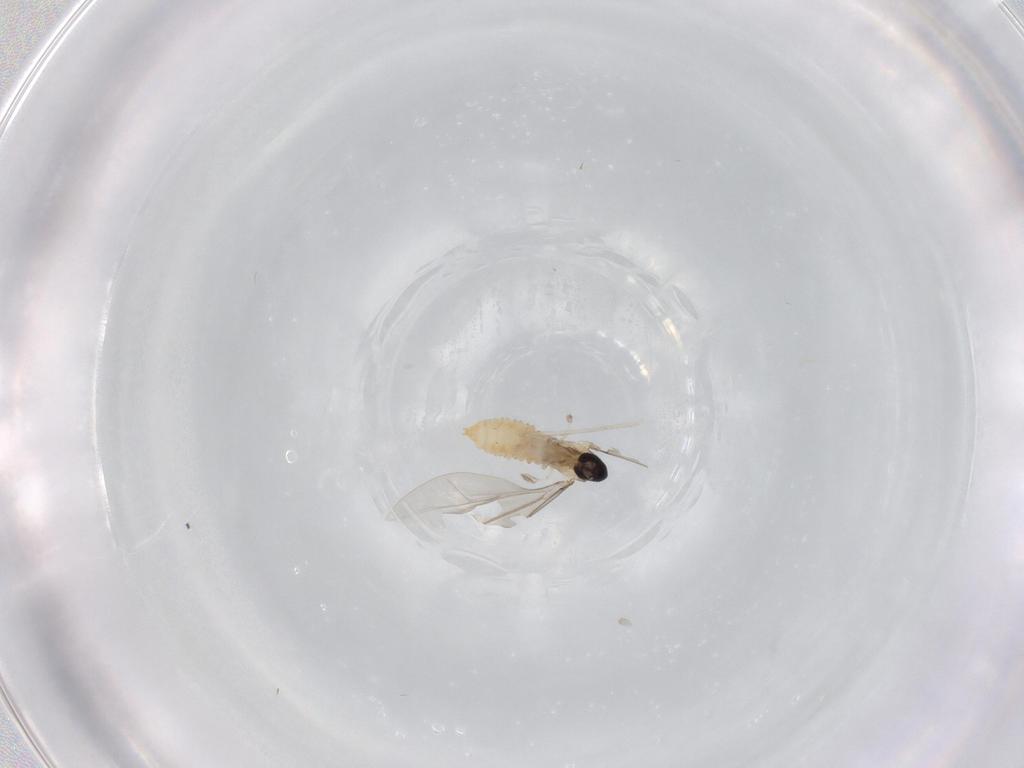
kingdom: Animalia
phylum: Arthropoda
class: Insecta
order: Diptera
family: Cecidomyiidae
